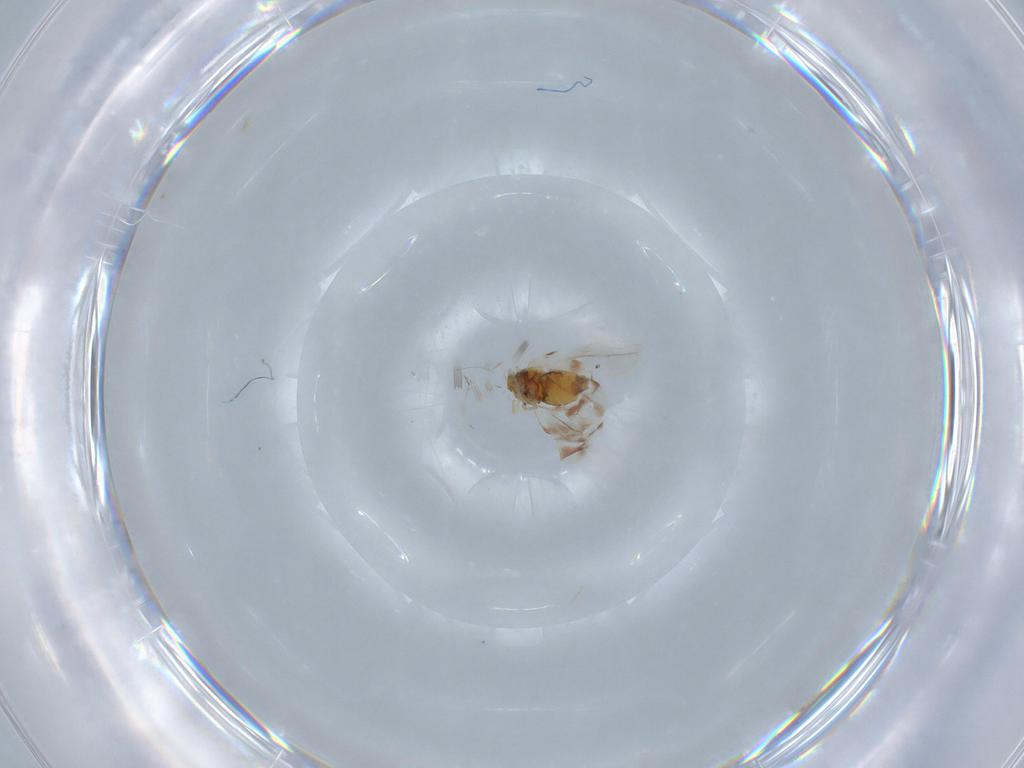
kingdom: Animalia
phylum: Arthropoda
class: Insecta
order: Hemiptera
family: Aleyrodidae
